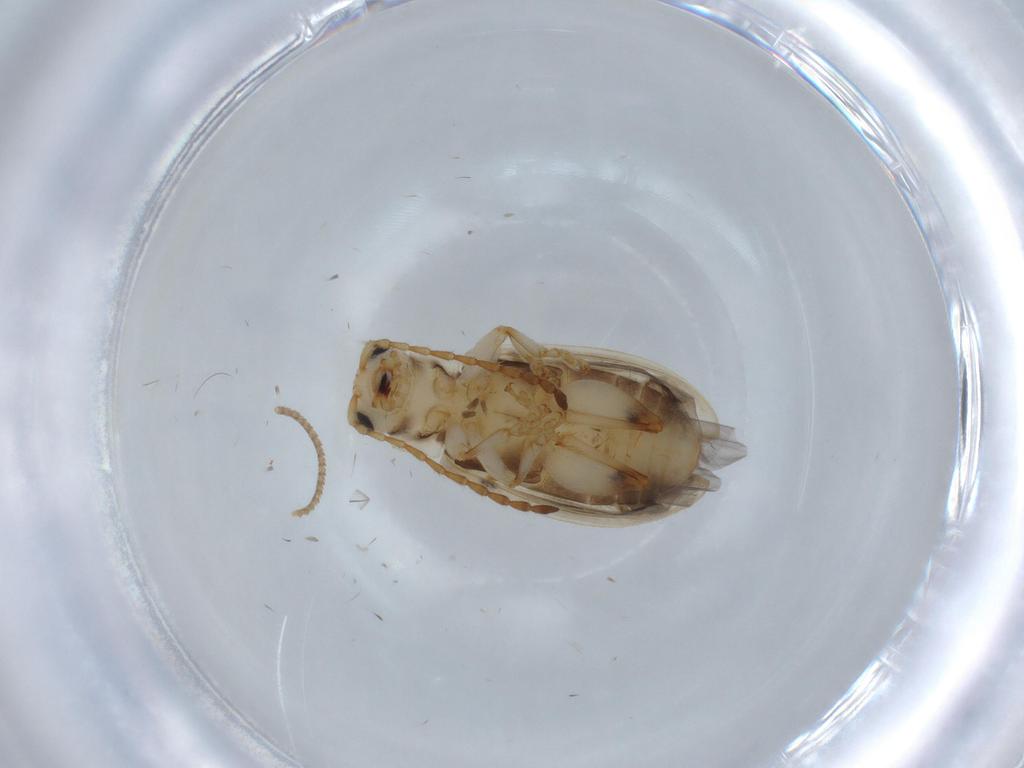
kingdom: Animalia
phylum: Arthropoda
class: Insecta
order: Coleoptera
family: Chrysomelidae
